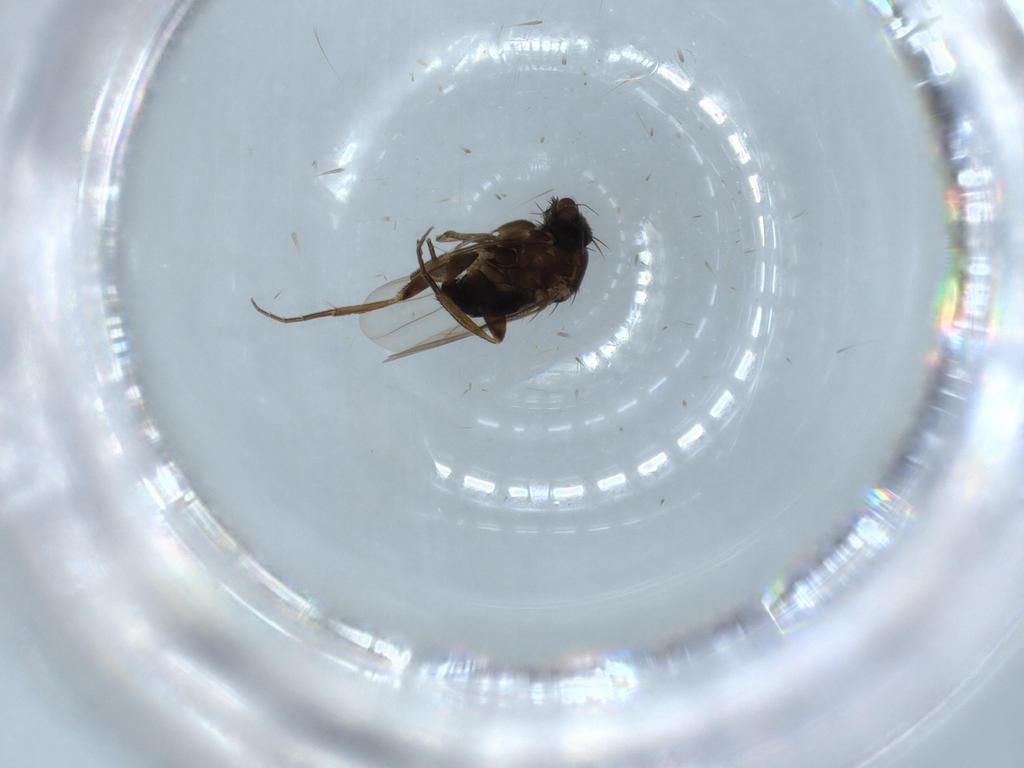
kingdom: Animalia
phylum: Arthropoda
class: Insecta
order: Diptera
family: Phoridae
